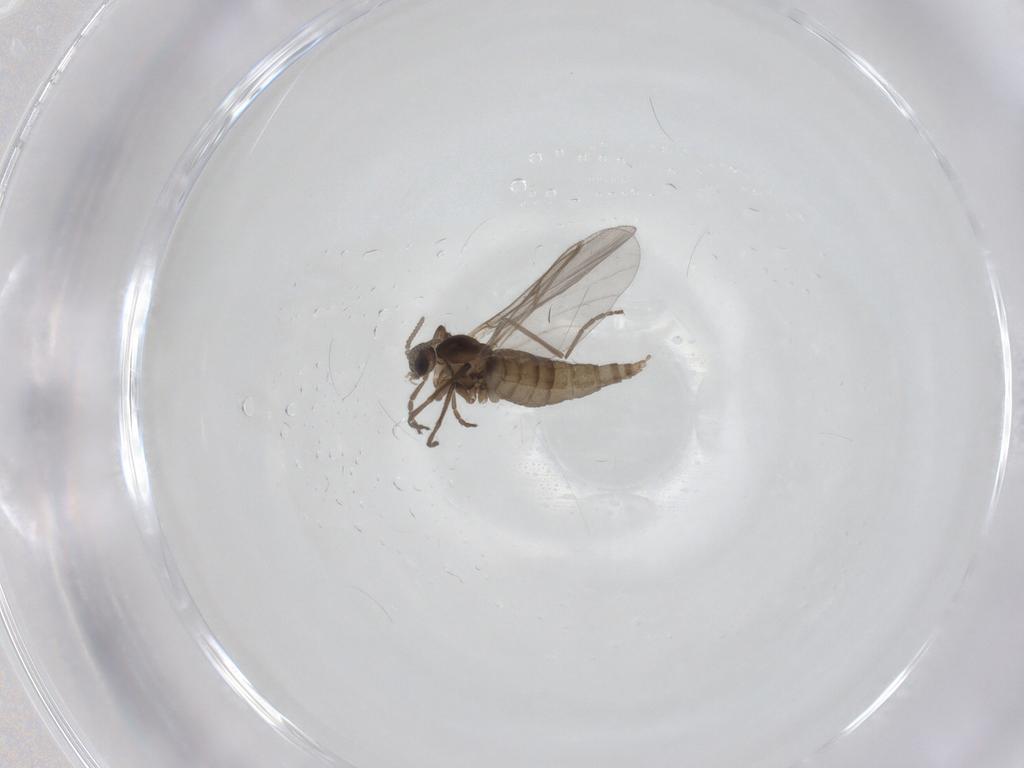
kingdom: Animalia
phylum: Arthropoda
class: Insecta
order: Diptera
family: Cecidomyiidae
